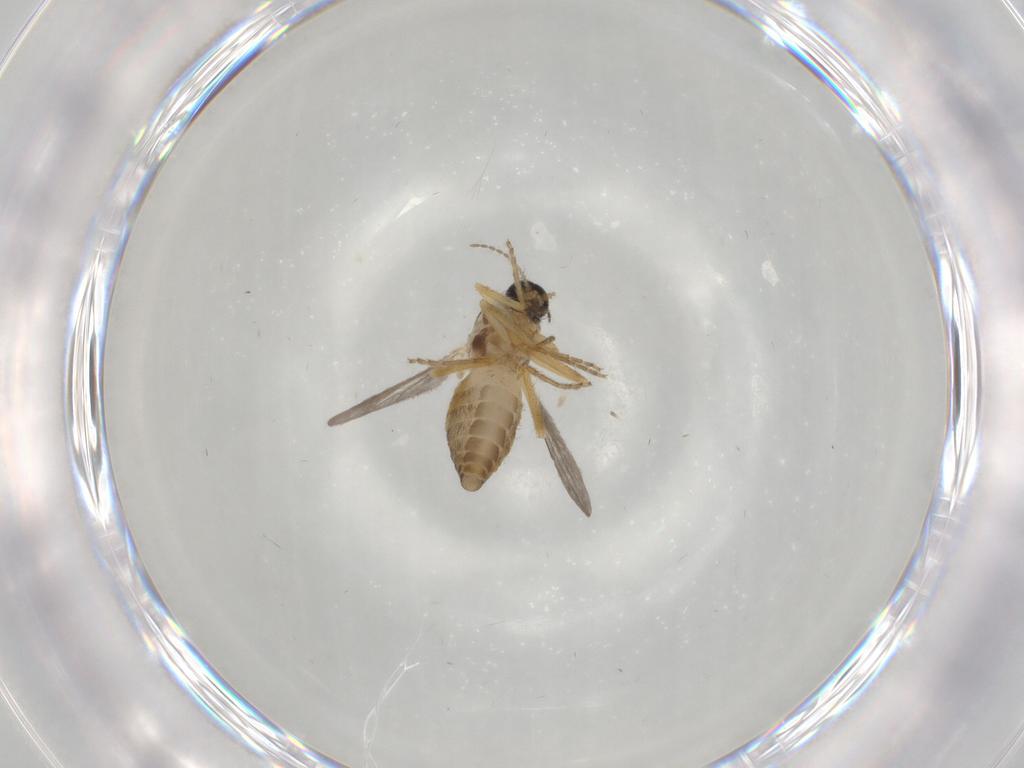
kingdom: Animalia
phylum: Arthropoda
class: Insecta
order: Diptera
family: Ceratopogonidae
